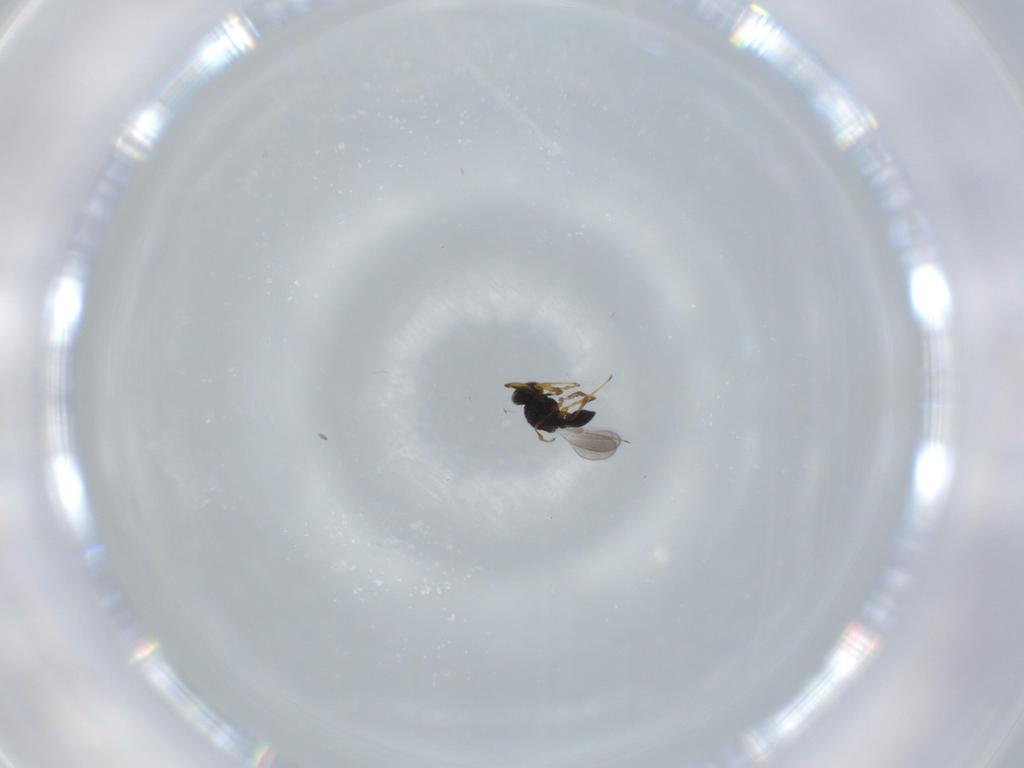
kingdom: Animalia
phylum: Arthropoda
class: Insecta
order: Hymenoptera
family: Platygastridae
